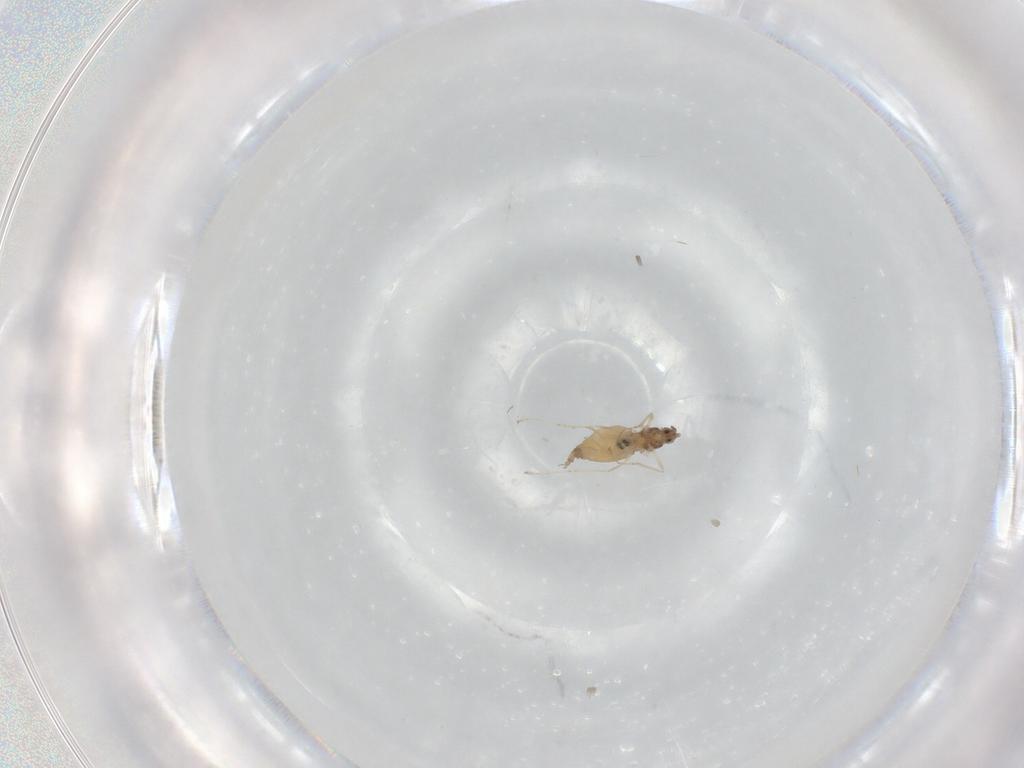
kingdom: Animalia
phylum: Arthropoda
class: Insecta
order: Diptera
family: Cecidomyiidae
